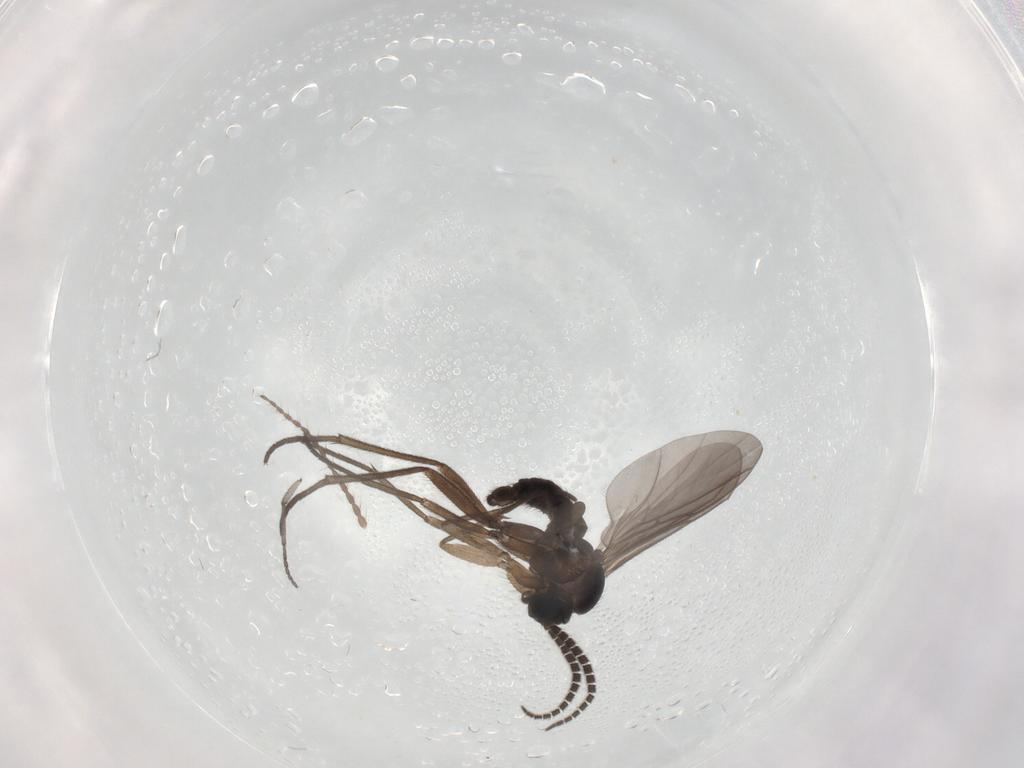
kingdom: Animalia
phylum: Arthropoda
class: Insecta
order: Diptera
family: Sciaridae
